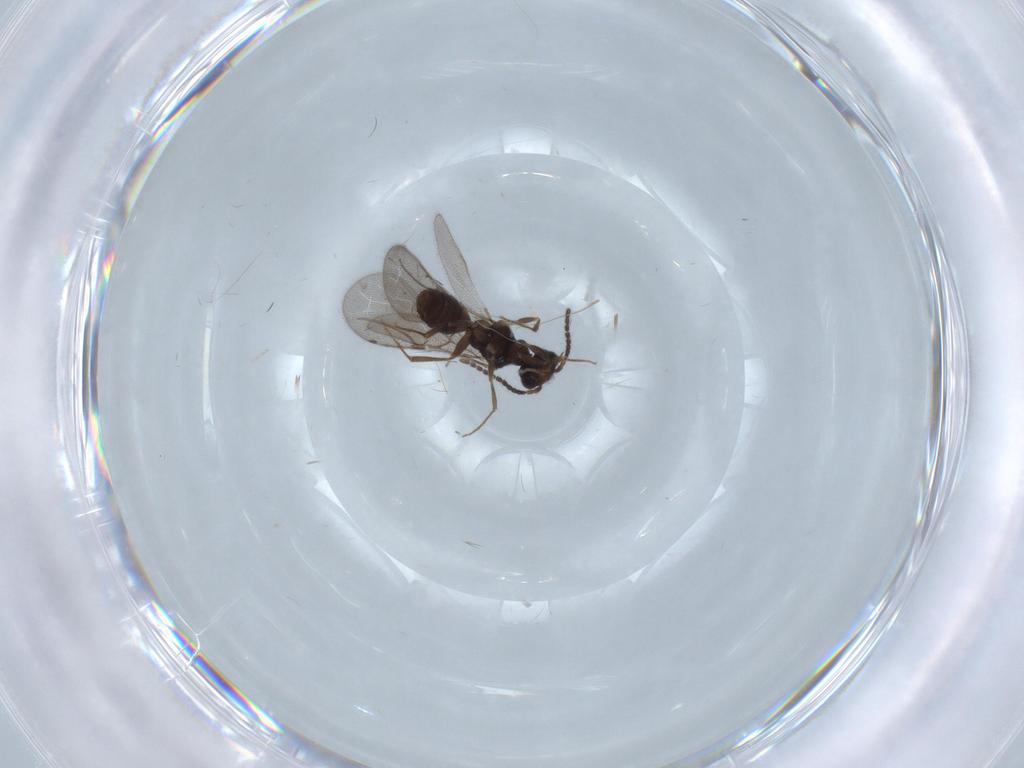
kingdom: Animalia
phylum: Arthropoda
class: Insecta
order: Hymenoptera
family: Bethylidae
